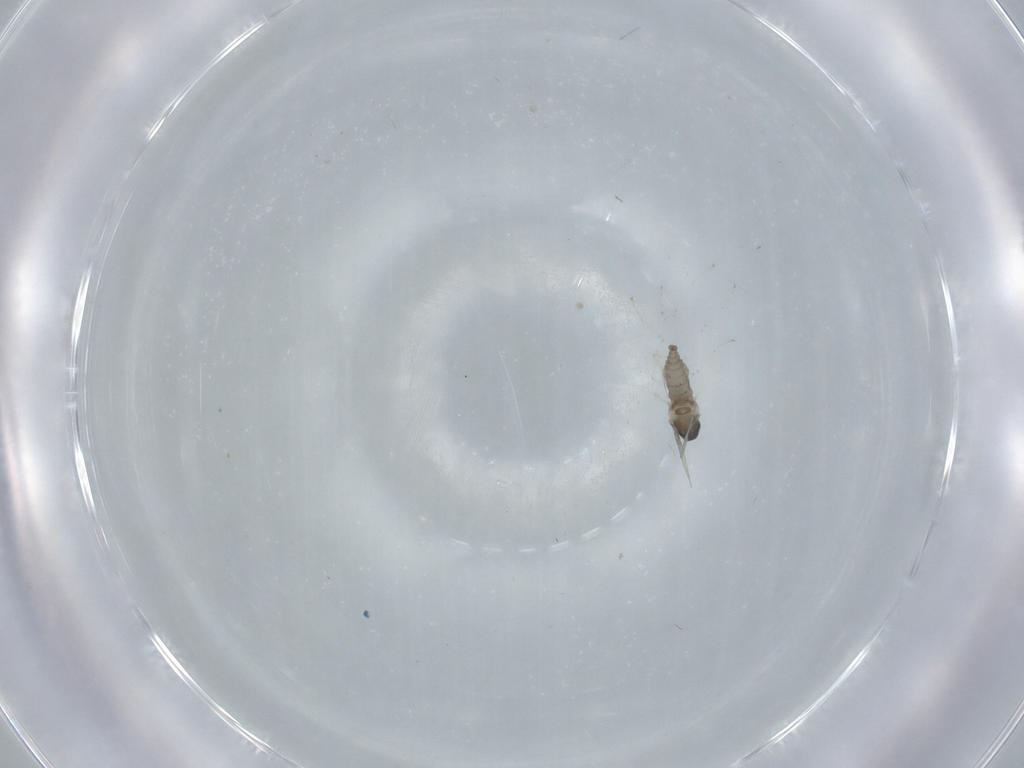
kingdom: Animalia
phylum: Arthropoda
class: Insecta
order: Diptera
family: Cecidomyiidae
